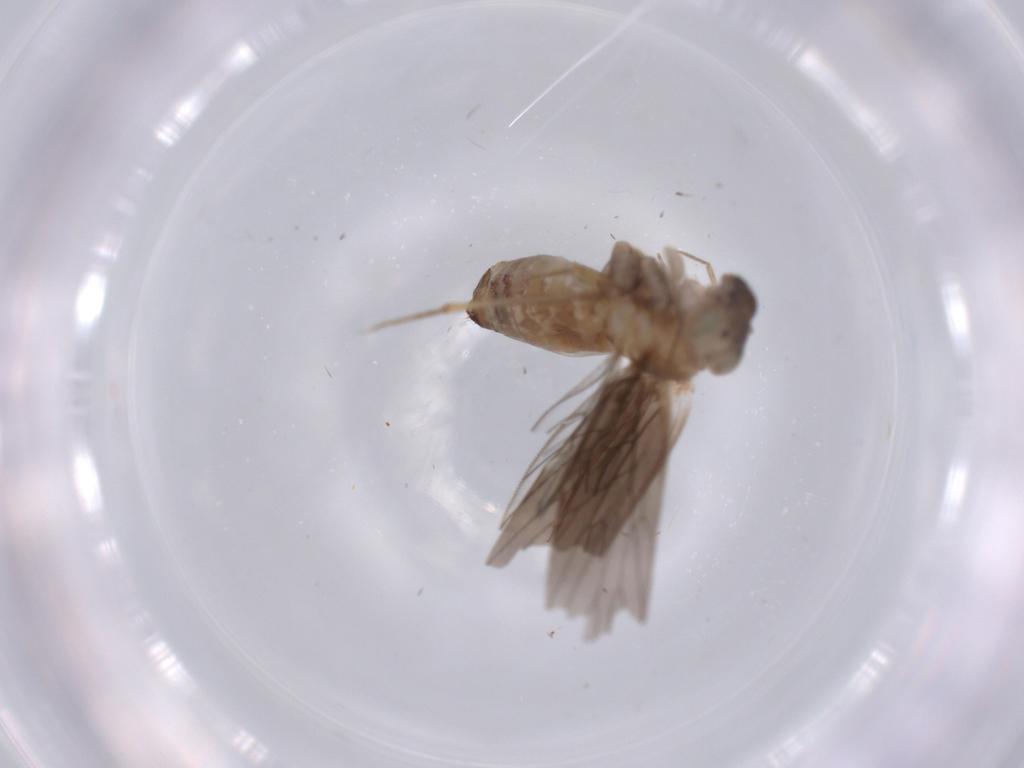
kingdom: Animalia
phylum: Arthropoda
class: Insecta
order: Psocodea
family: Lepidopsocidae
